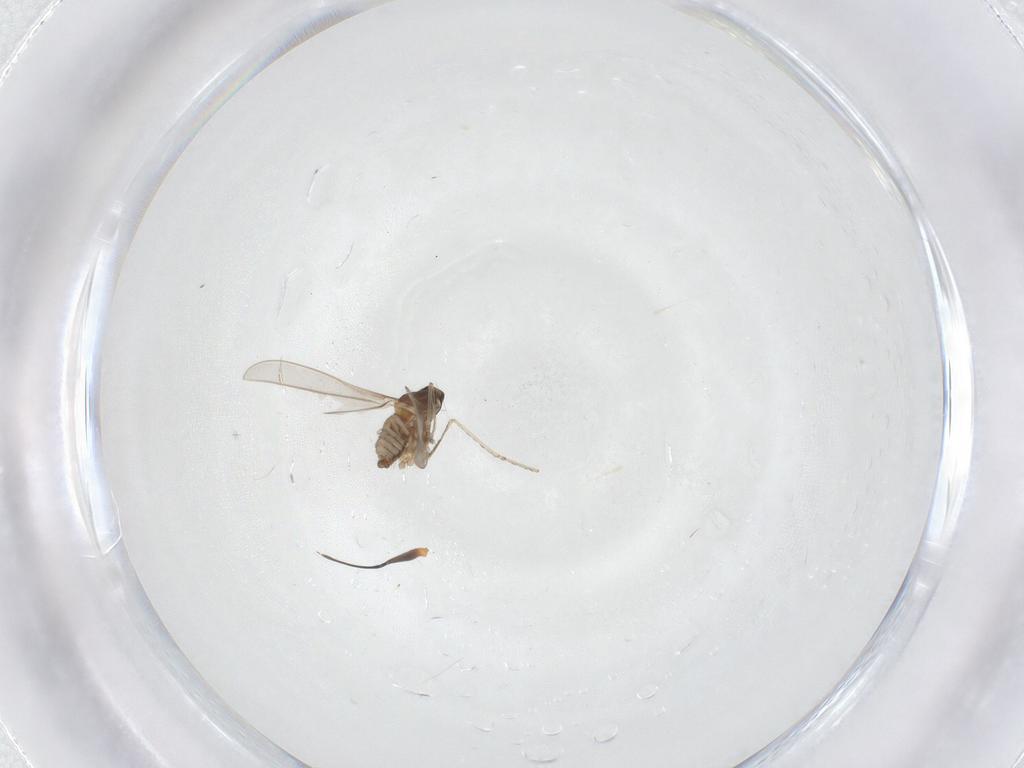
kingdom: Animalia
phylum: Arthropoda
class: Insecta
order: Diptera
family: Asilidae
